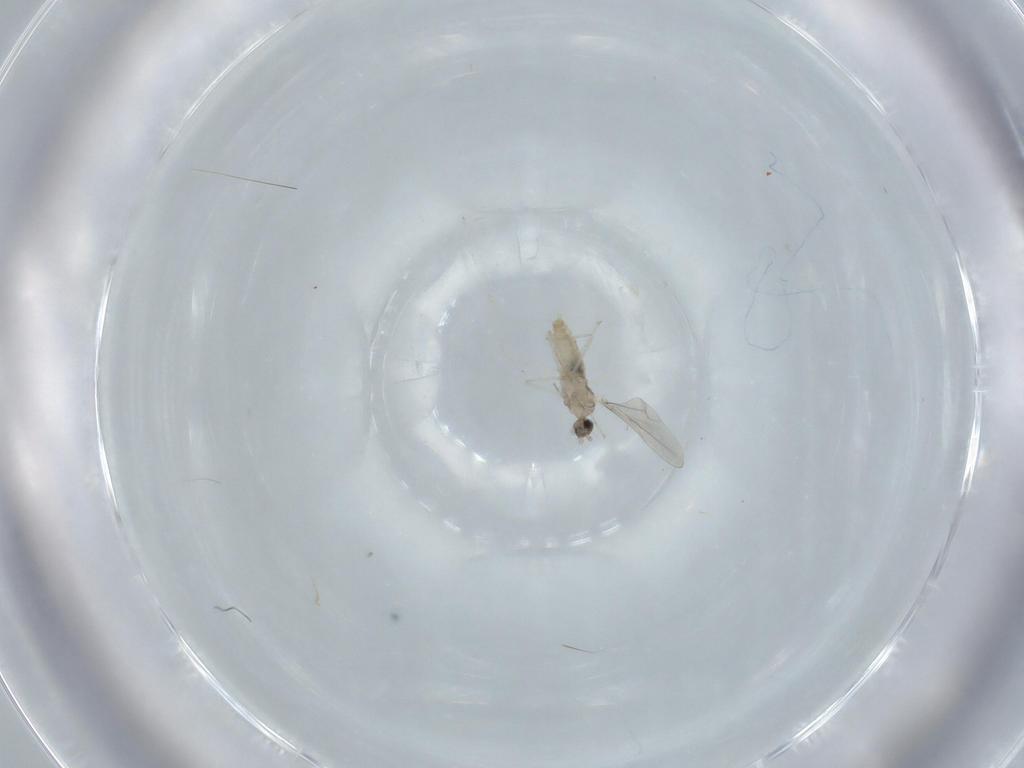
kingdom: Animalia
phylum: Arthropoda
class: Insecta
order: Diptera
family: Cecidomyiidae
